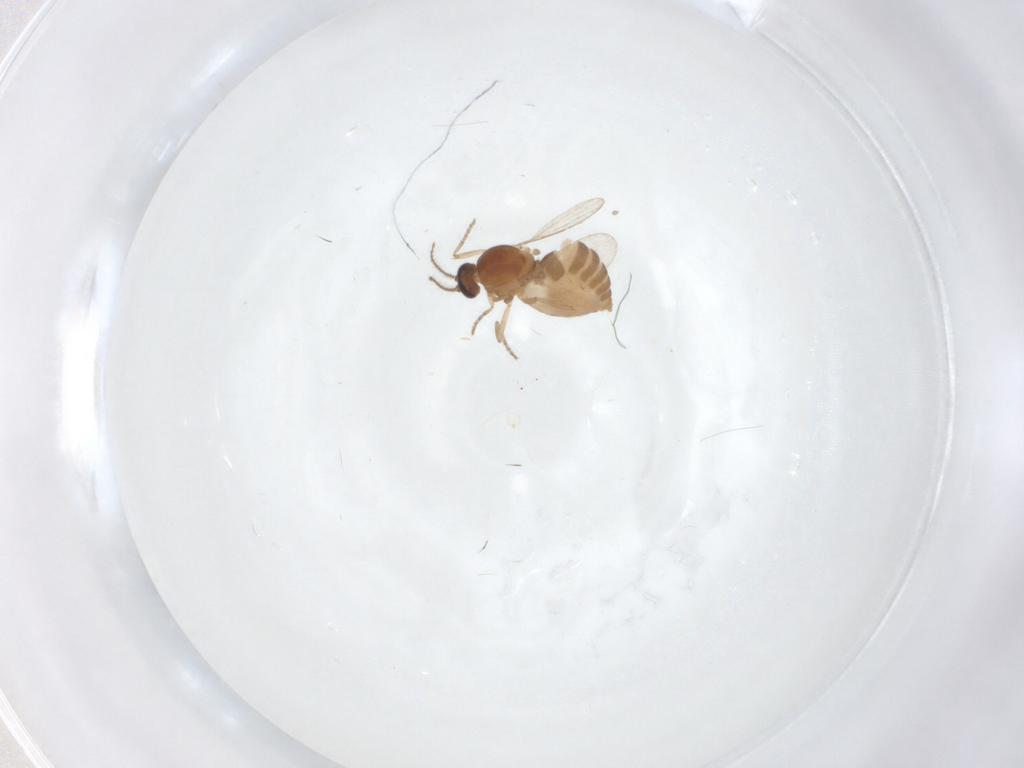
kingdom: Animalia
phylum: Arthropoda
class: Insecta
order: Diptera
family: Ceratopogonidae
